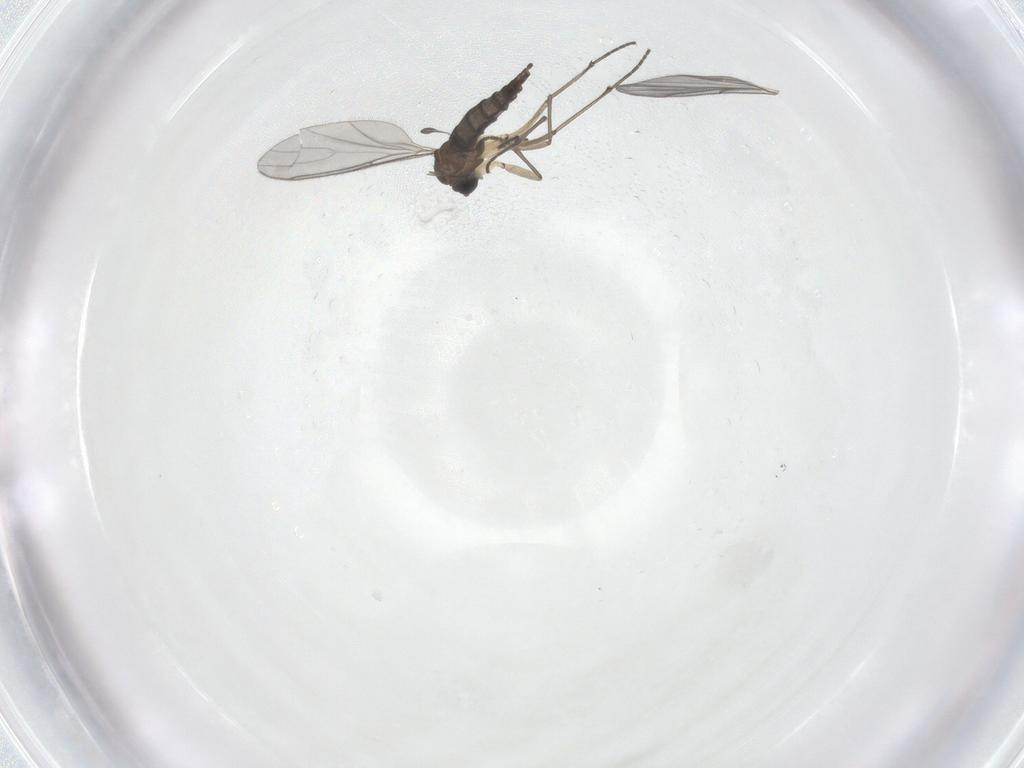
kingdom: Animalia
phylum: Arthropoda
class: Insecta
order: Diptera
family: Sciaridae
